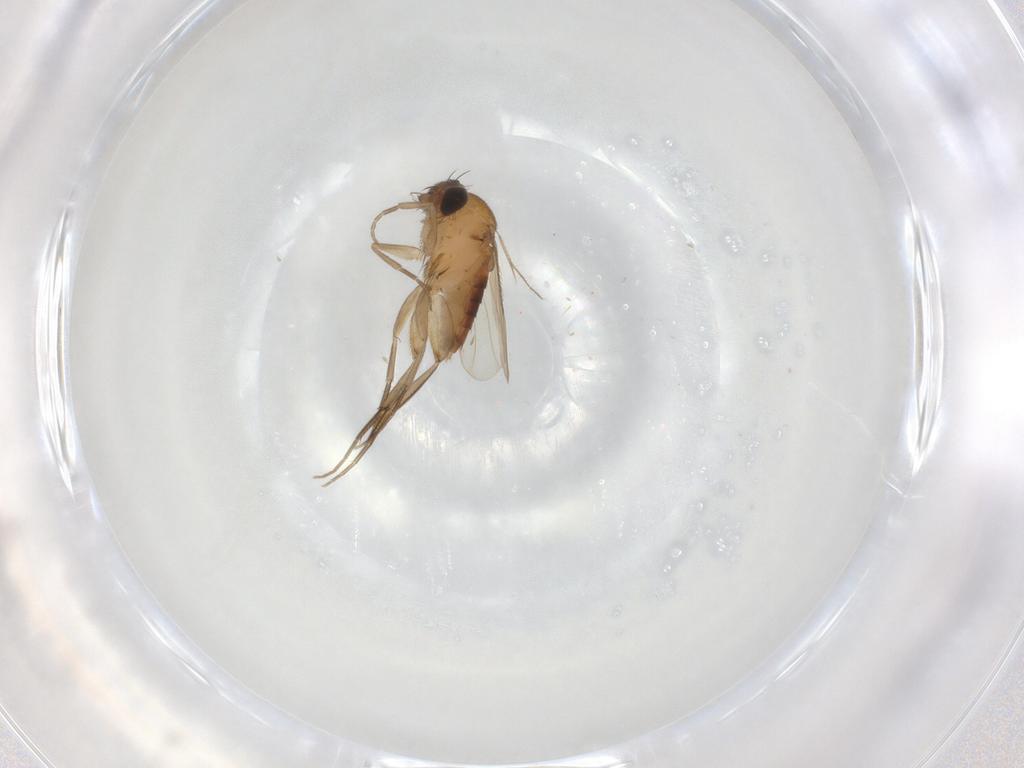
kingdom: Animalia
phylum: Arthropoda
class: Insecta
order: Diptera
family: Phoridae
